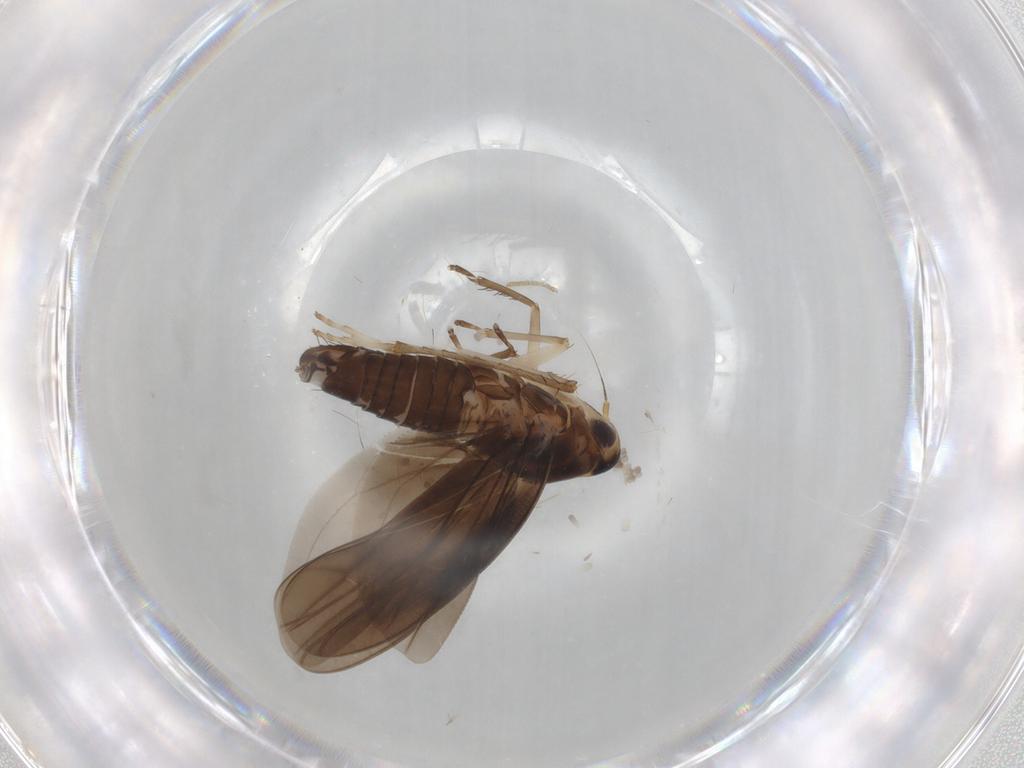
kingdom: Animalia
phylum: Arthropoda
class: Insecta
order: Hemiptera
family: Cicadellidae
